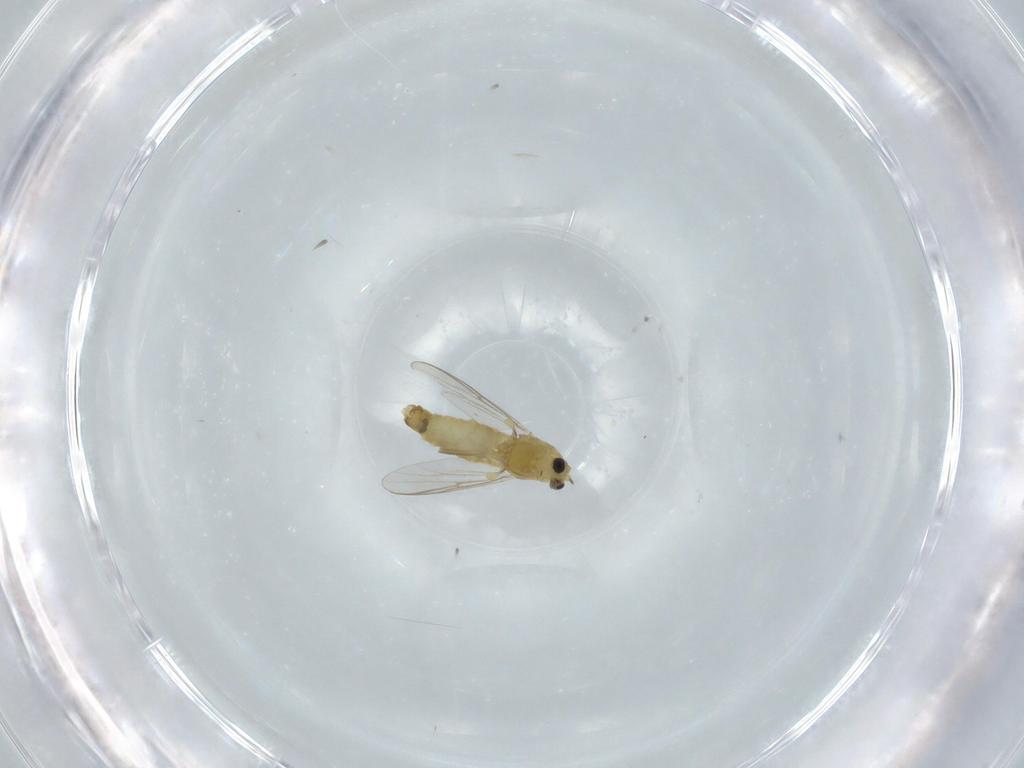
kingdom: Animalia
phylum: Arthropoda
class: Insecta
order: Diptera
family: Chironomidae
